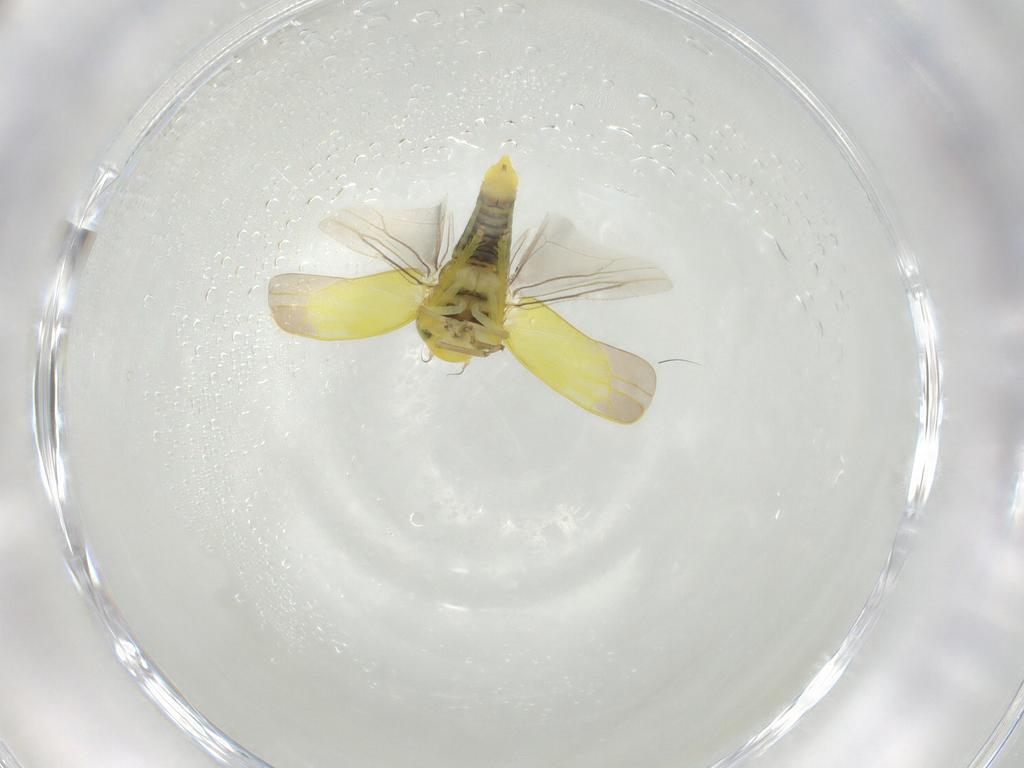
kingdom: Animalia
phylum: Arthropoda
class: Insecta
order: Hemiptera
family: Cicadellidae
